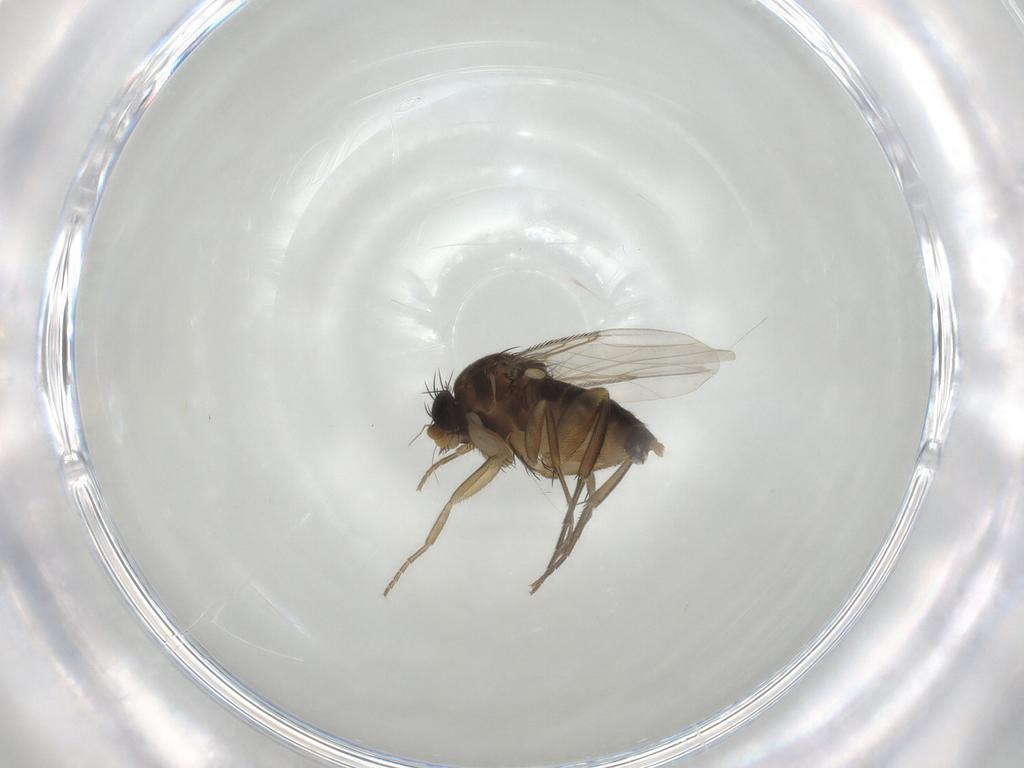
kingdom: Animalia
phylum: Arthropoda
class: Insecta
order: Diptera
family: Phoridae
